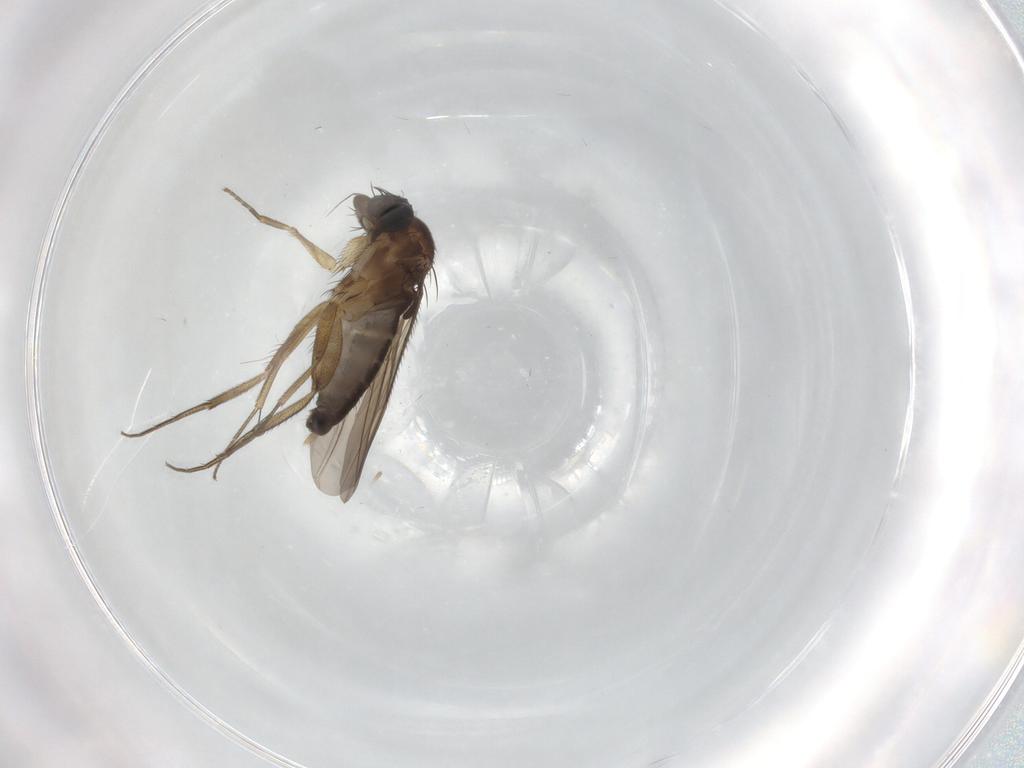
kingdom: Animalia
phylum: Arthropoda
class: Insecta
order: Diptera
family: Phoridae
